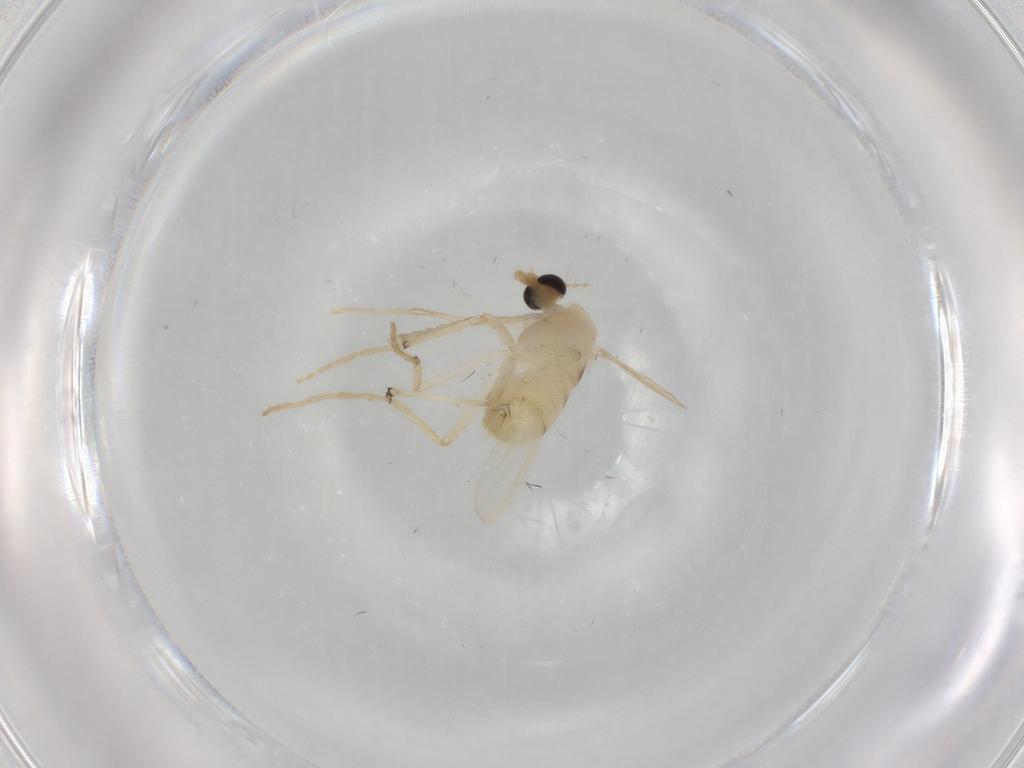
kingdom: Animalia
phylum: Arthropoda
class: Insecta
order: Diptera
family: Chironomidae
